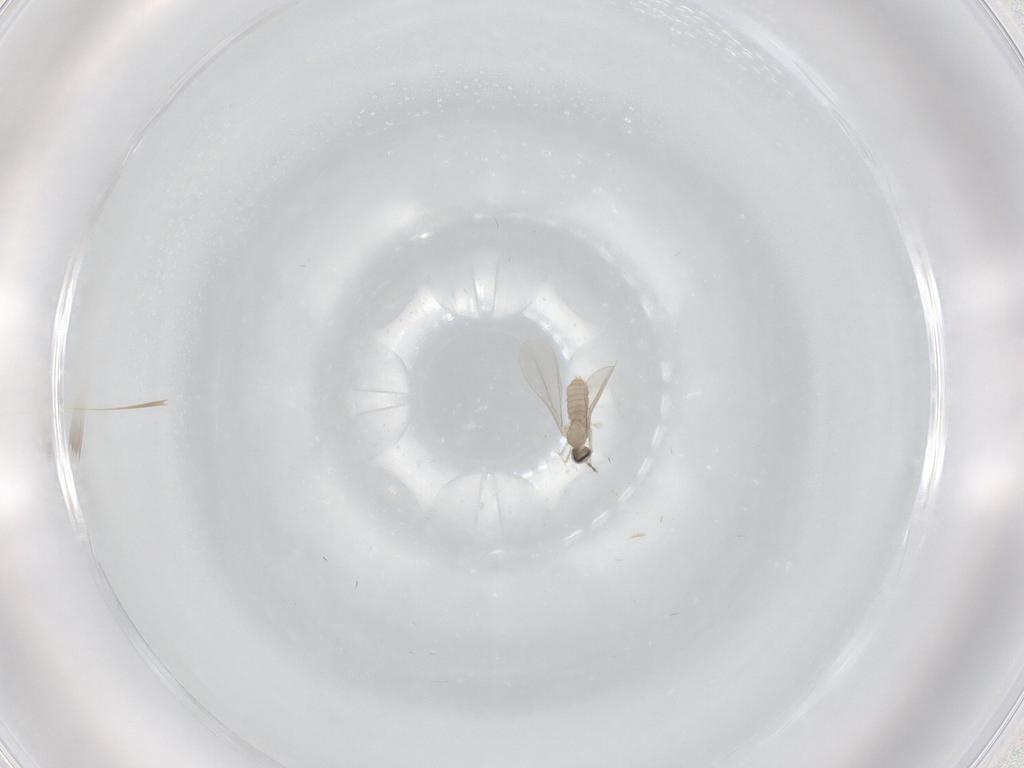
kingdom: Animalia
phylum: Arthropoda
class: Insecta
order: Diptera
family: Cecidomyiidae
